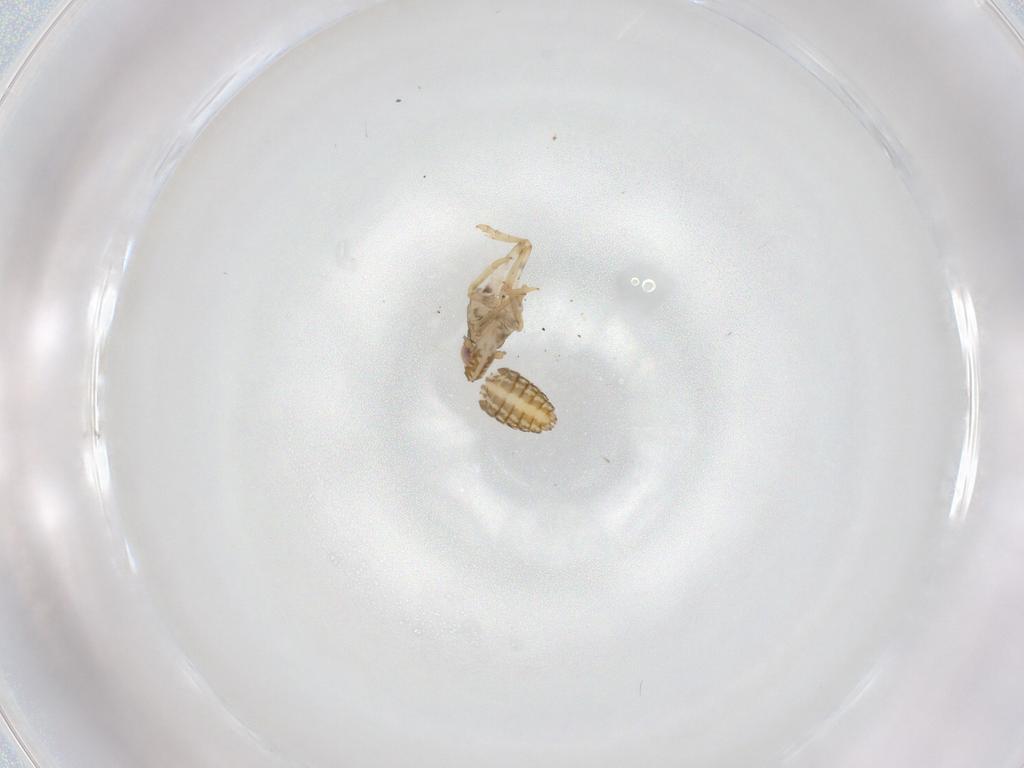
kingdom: Animalia
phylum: Arthropoda
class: Insecta
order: Hemiptera
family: Delphacidae
